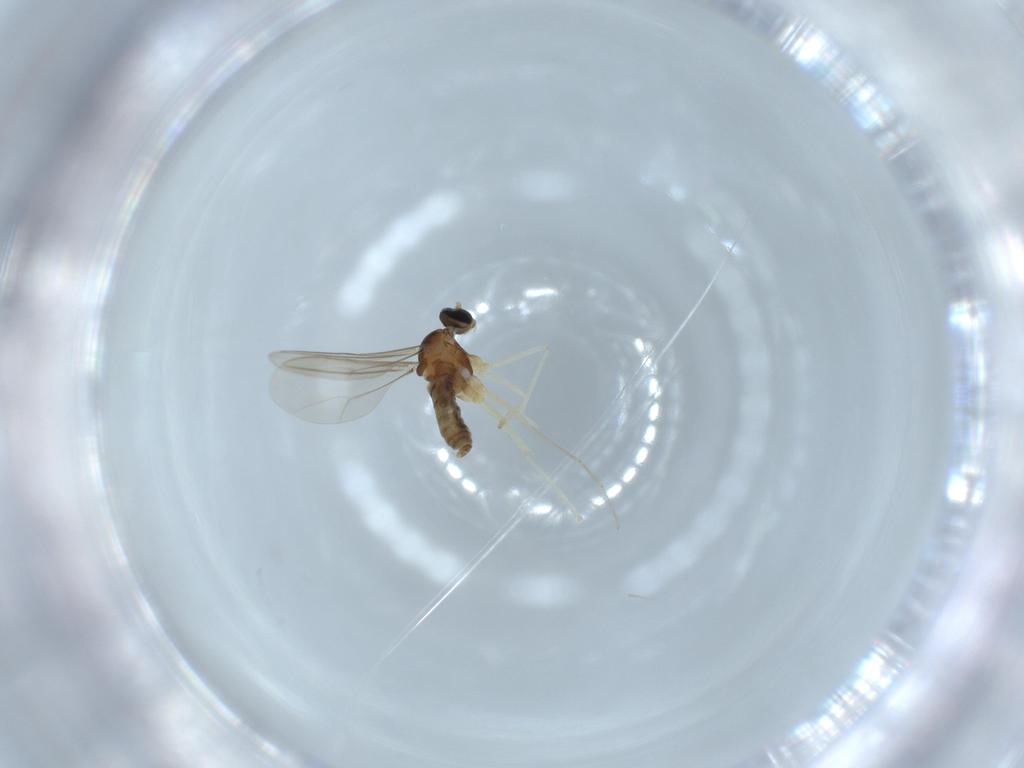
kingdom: Animalia
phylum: Arthropoda
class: Insecta
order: Diptera
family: Cecidomyiidae
